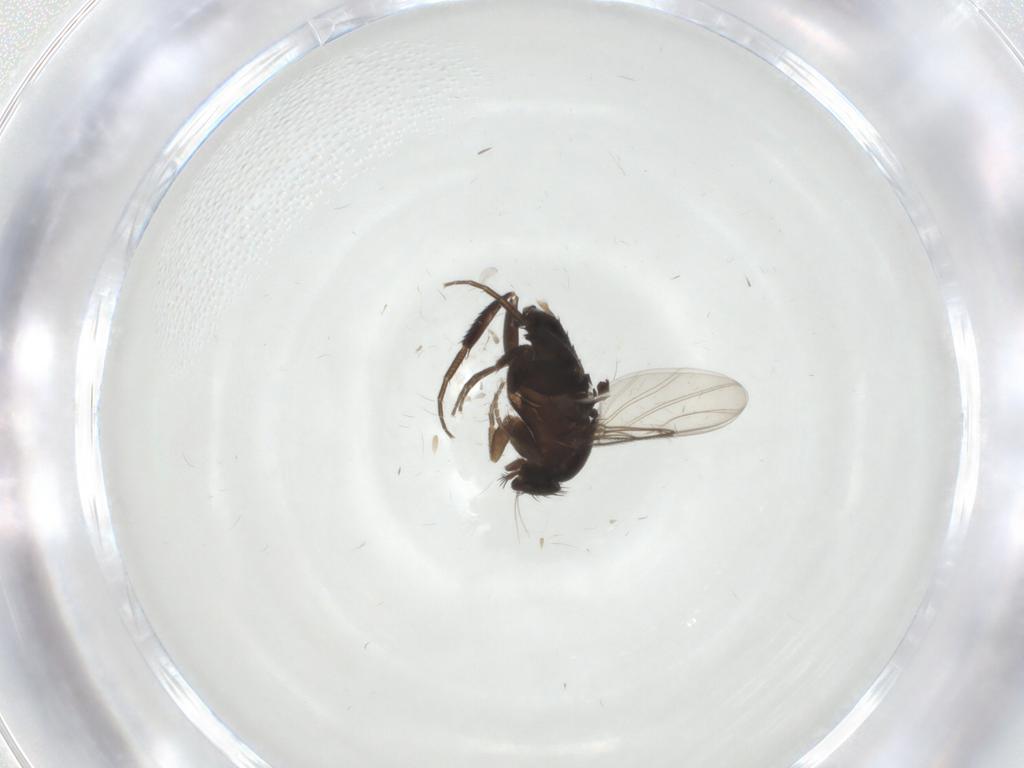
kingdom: Animalia
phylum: Arthropoda
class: Insecta
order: Diptera
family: Phoridae
